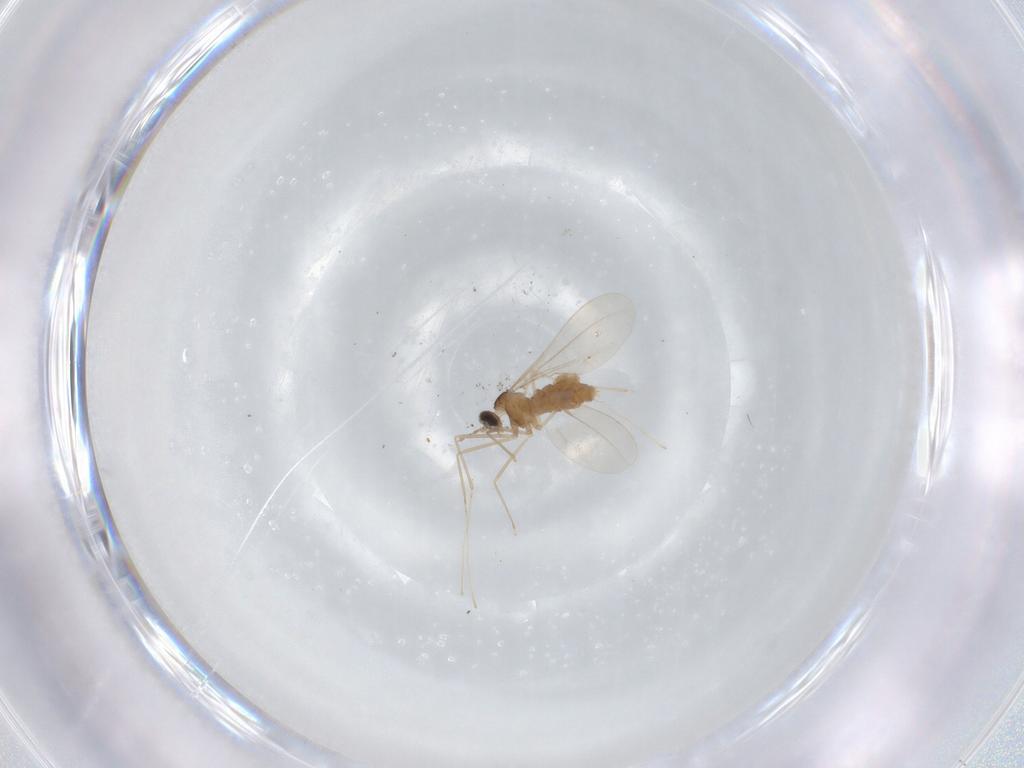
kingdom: Animalia
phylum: Arthropoda
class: Insecta
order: Diptera
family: Cecidomyiidae
